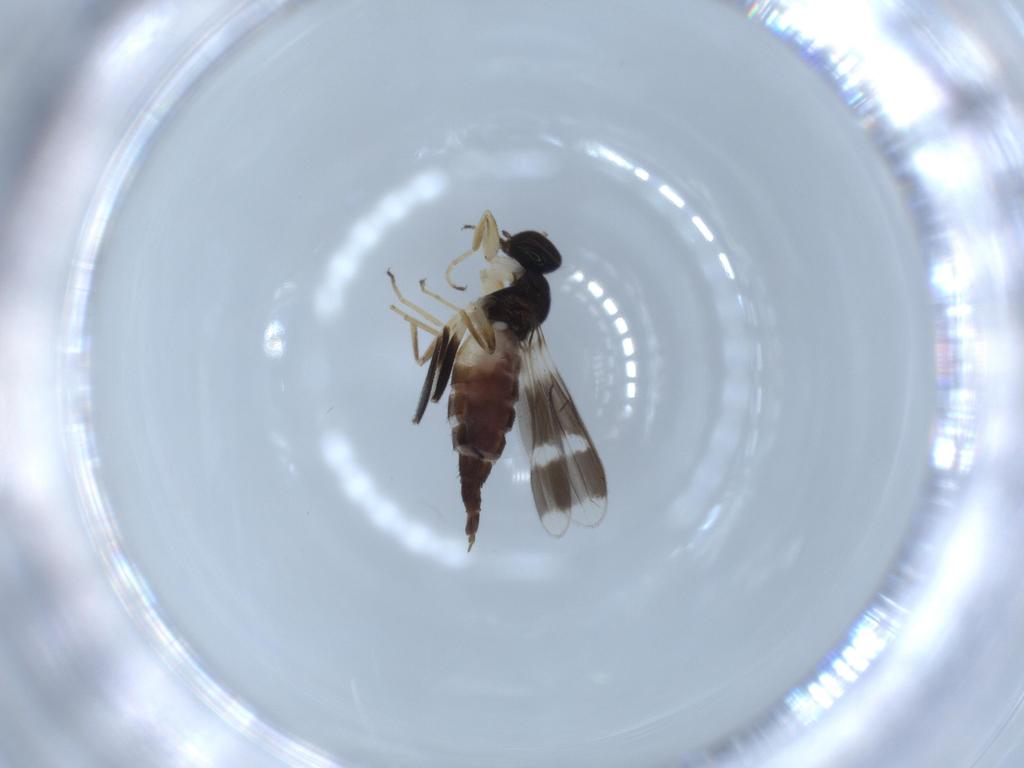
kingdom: Animalia
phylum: Arthropoda
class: Insecta
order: Diptera
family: Hybotidae
